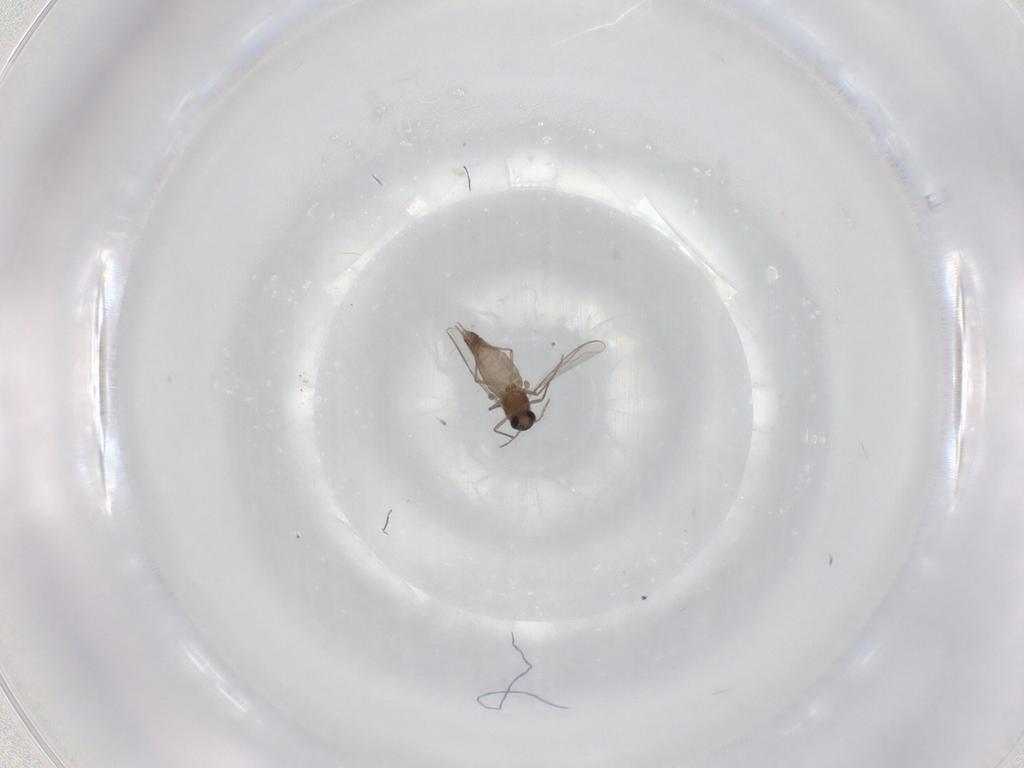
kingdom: Animalia
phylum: Arthropoda
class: Insecta
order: Diptera
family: Chironomidae
